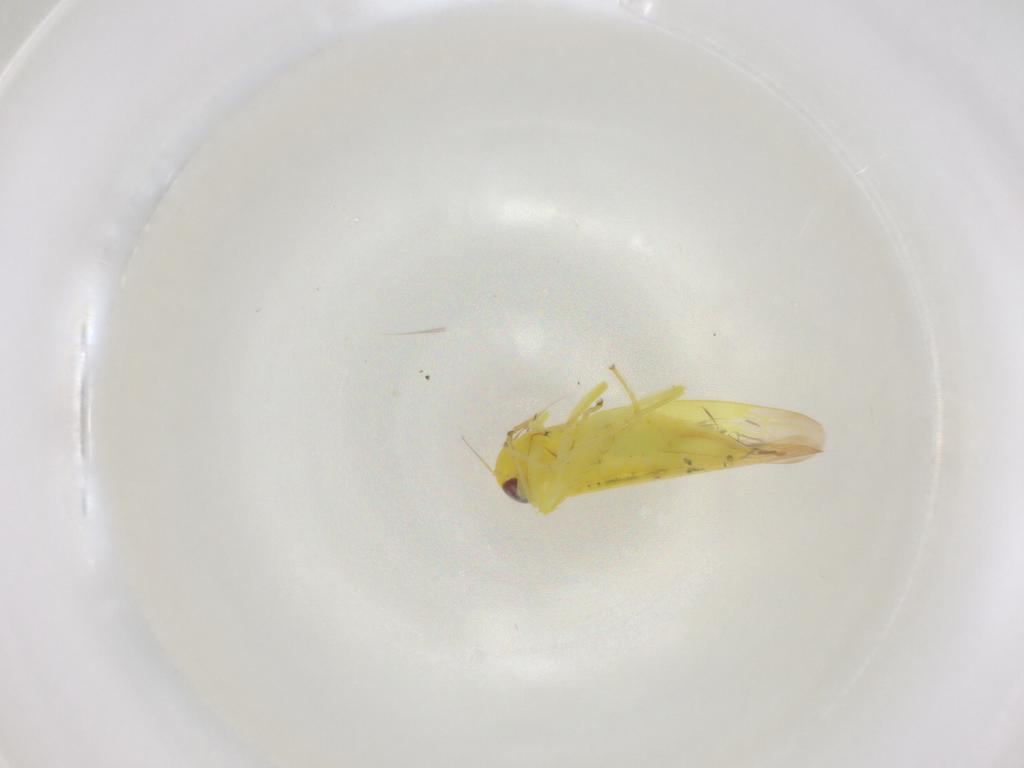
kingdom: Animalia
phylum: Arthropoda
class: Insecta
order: Hemiptera
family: Cicadellidae
